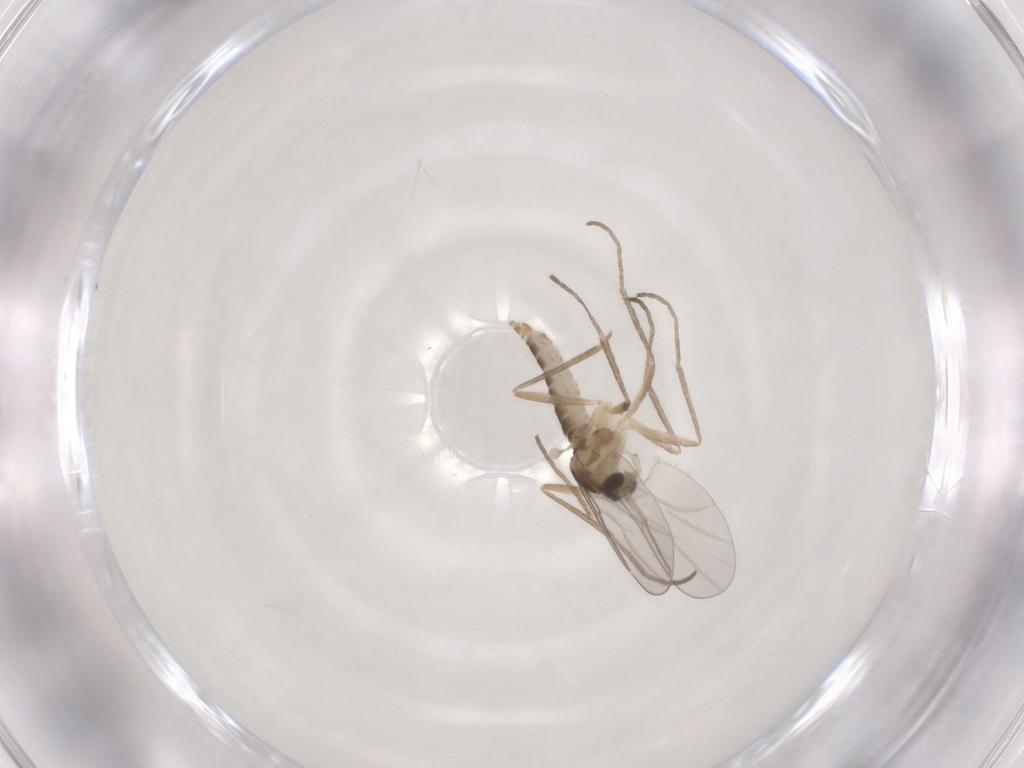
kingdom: Animalia
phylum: Arthropoda
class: Insecta
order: Diptera
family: Cecidomyiidae
